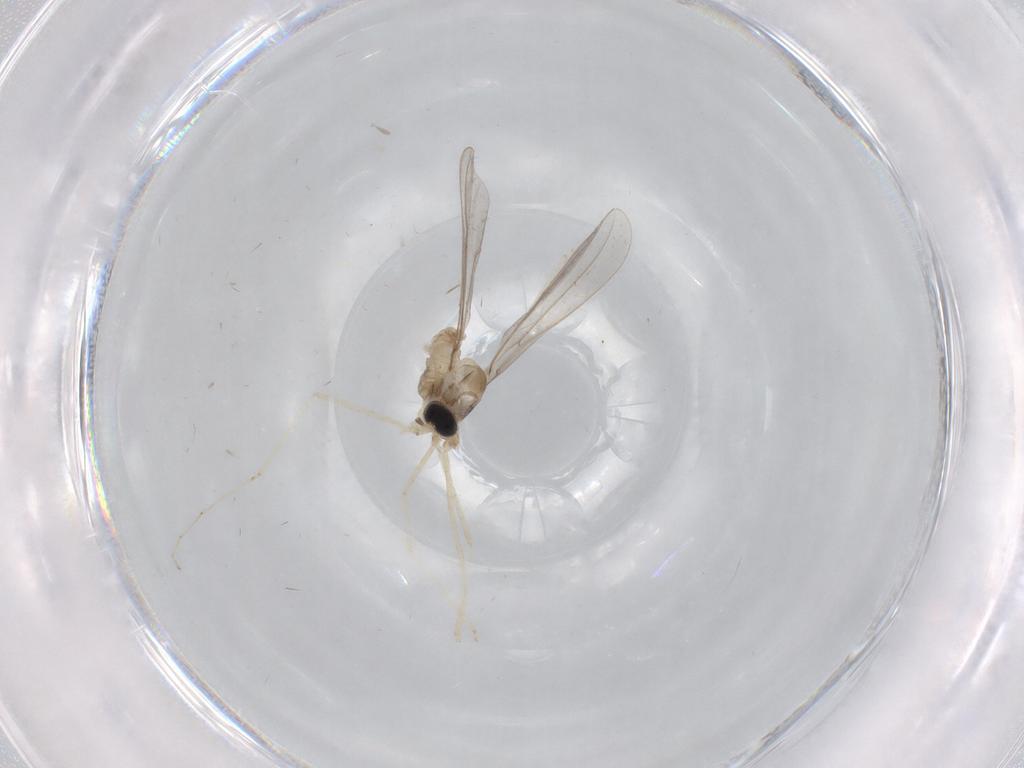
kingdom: Animalia
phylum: Arthropoda
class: Insecta
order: Diptera
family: Cecidomyiidae
